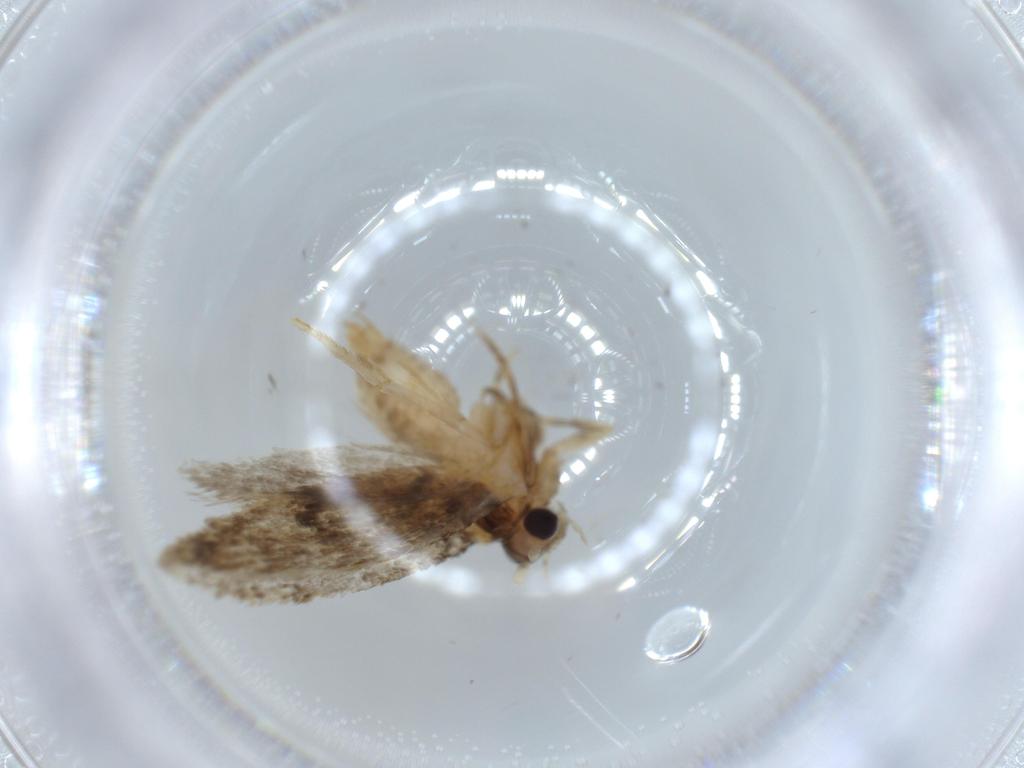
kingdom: Animalia
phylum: Arthropoda
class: Insecta
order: Lepidoptera
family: Tineidae
